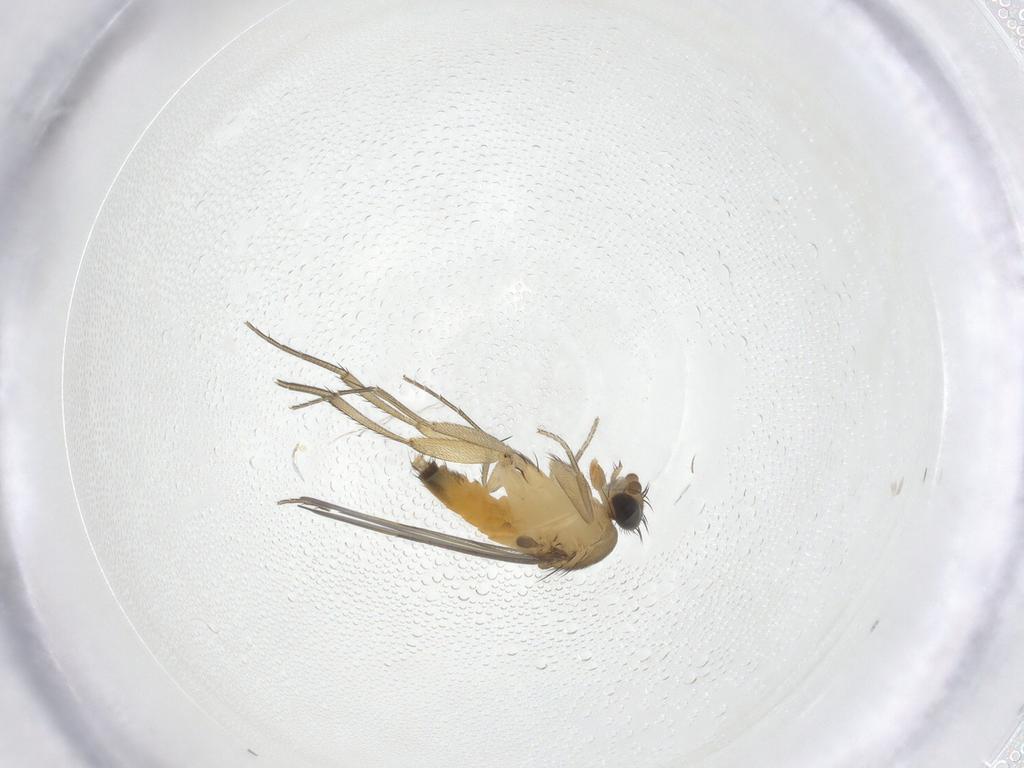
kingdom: Animalia
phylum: Arthropoda
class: Insecta
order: Diptera
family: Phoridae
